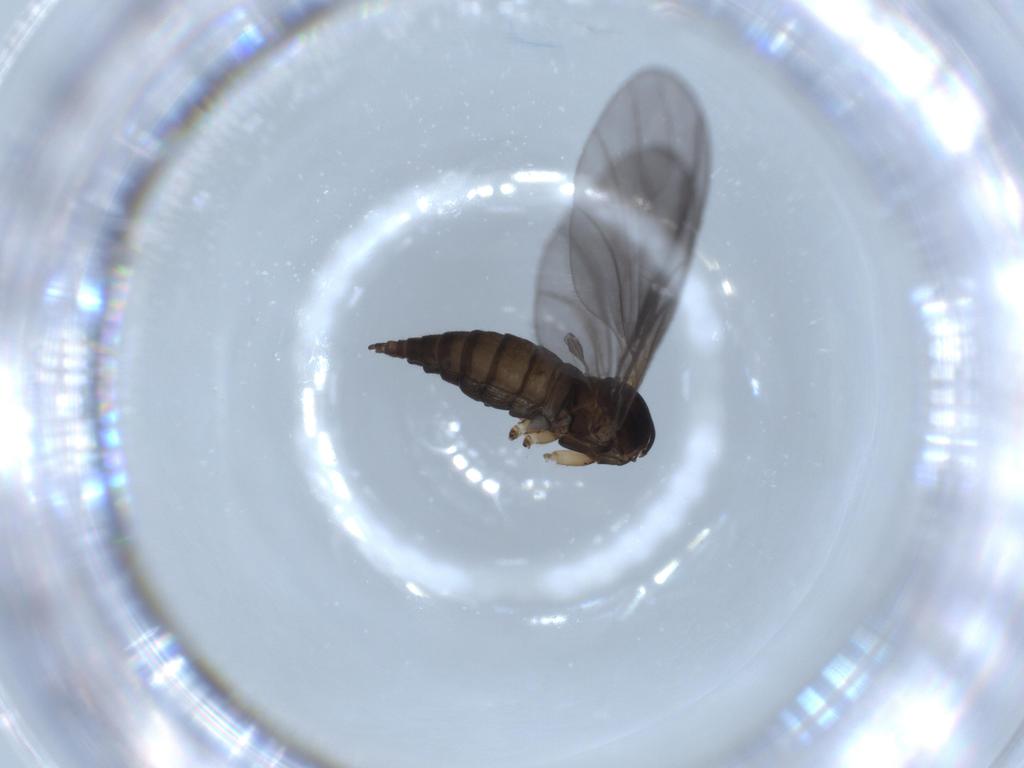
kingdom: Animalia
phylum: Arthropoda
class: Insecta
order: Diptera
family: Sciaridae
